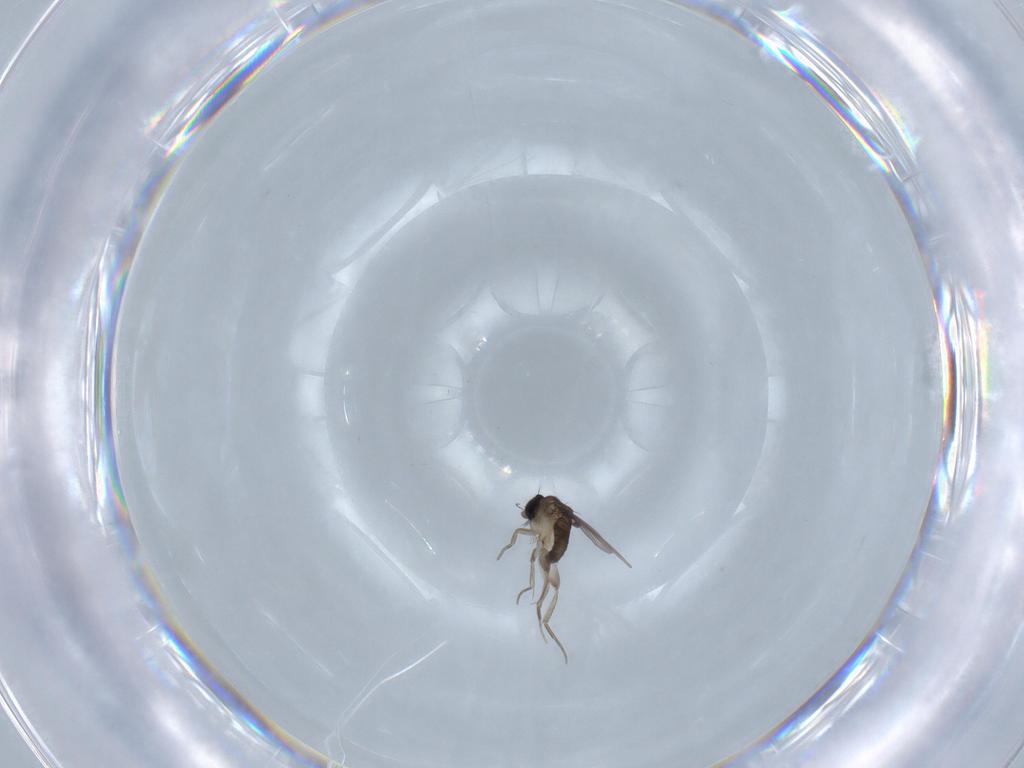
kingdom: Animalia
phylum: Arthropoda
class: Insecta
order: Diptera
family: Phoridae
